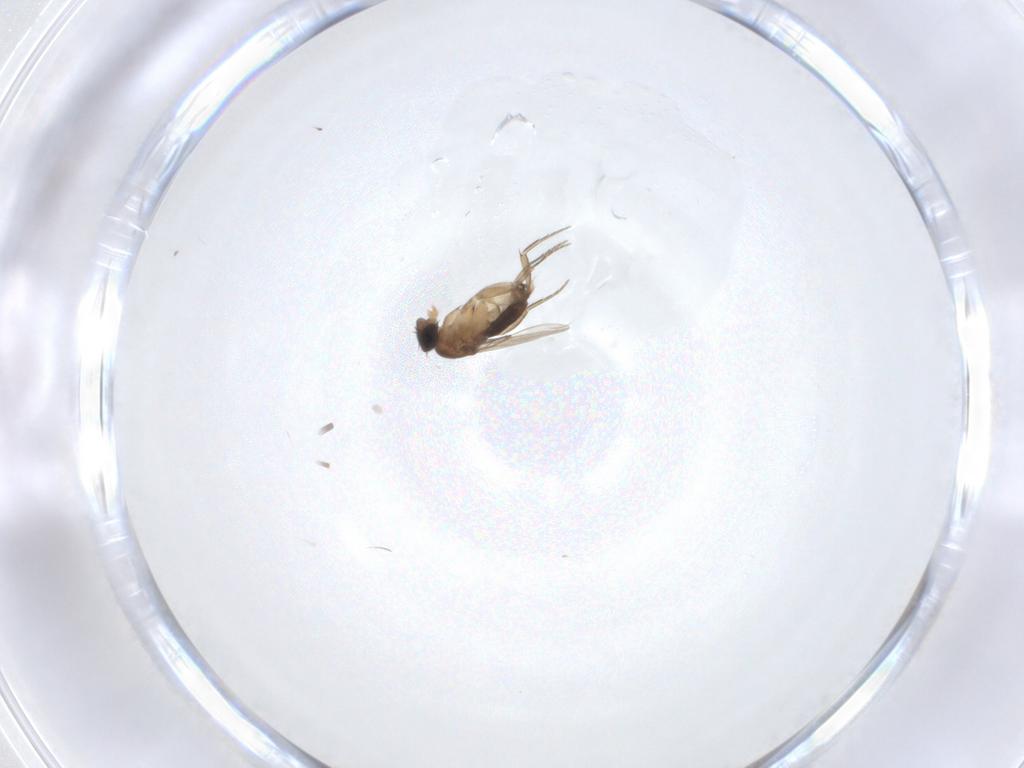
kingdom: Animalia
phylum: Arthropoda
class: Insecta
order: Diptera
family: Phoridae
